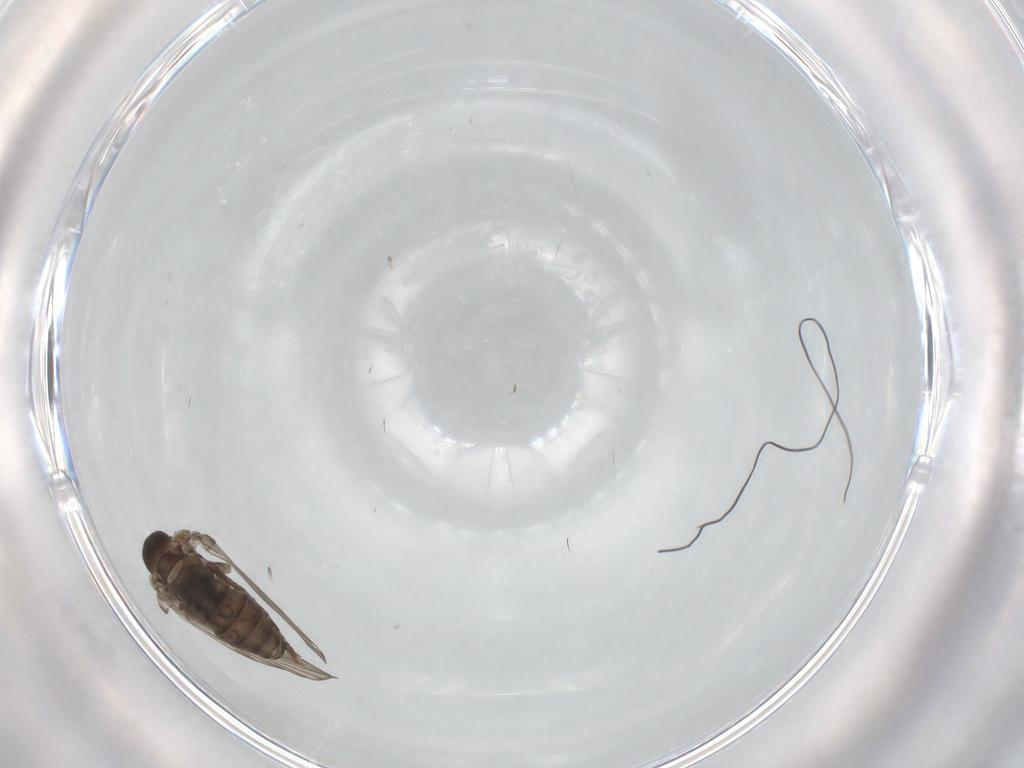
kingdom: Animalia
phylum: Arthropoda
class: Insecta
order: Diptera
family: Psychodidae
